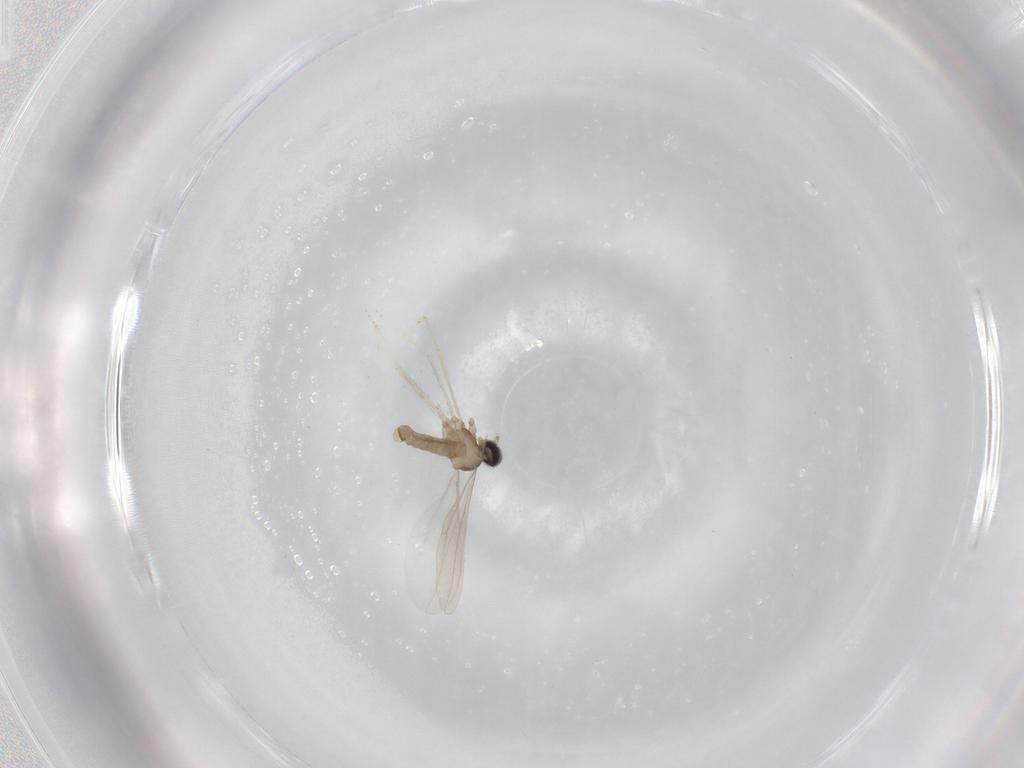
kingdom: Animalia
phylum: Arthropoda
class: Insecta
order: Diptera
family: Cecidomyiidae
